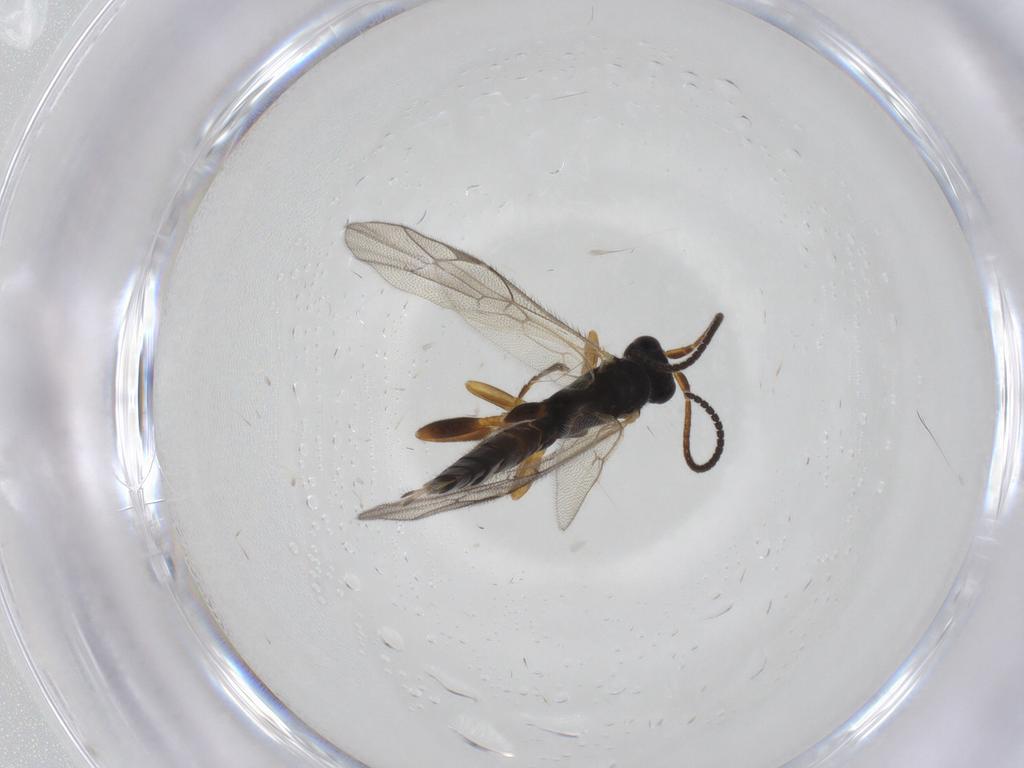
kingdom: Animalia
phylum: Arthropoda
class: Insecta
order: Hymenoptera
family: Ichneumonidae
